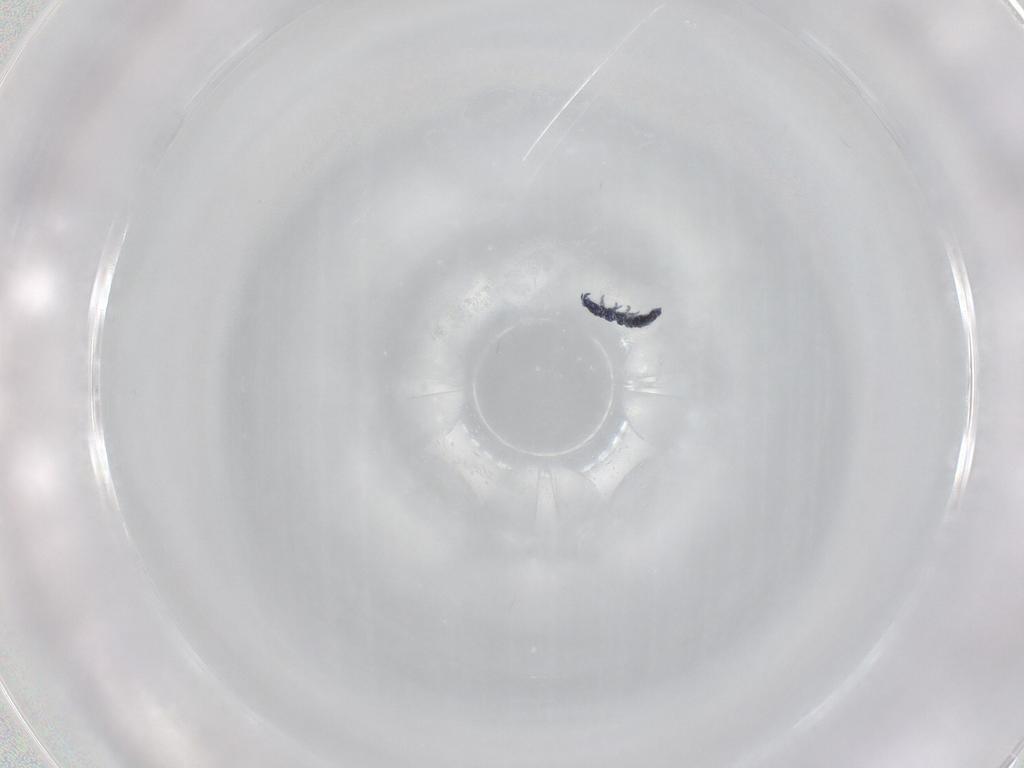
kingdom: Animalia
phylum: Arthropoda
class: Collembola
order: Poduromorpha
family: Hypogastruridae
